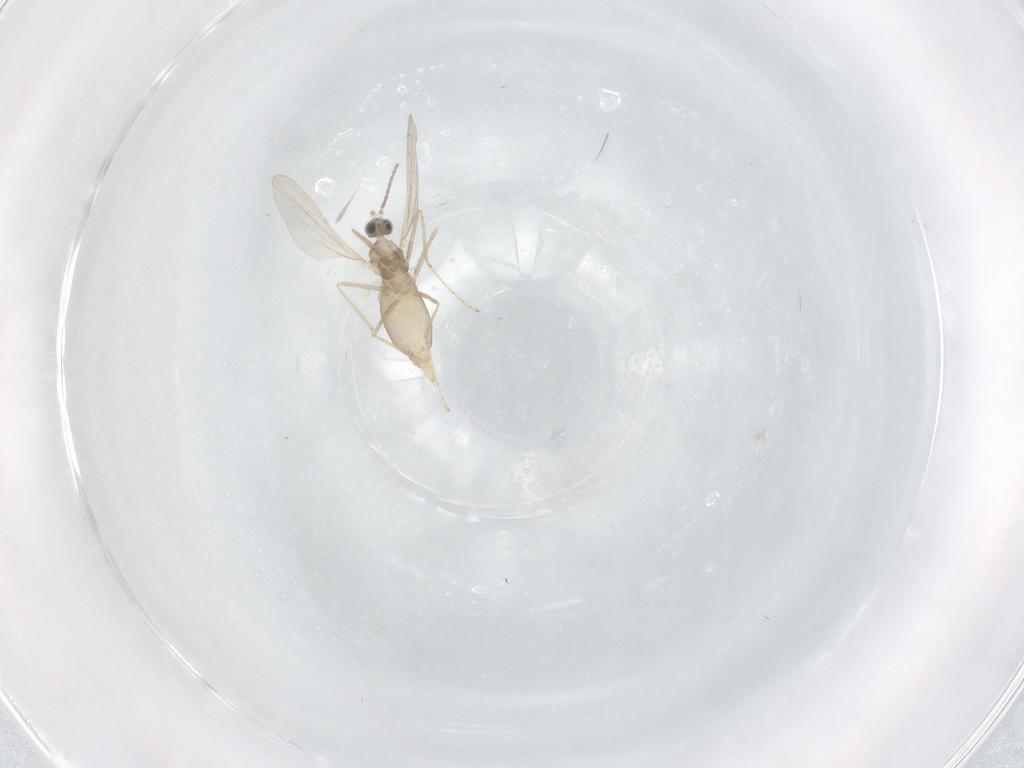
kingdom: Animalia
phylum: Arthropoda
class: Insecta
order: Diptera
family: Cecidomyiidae
